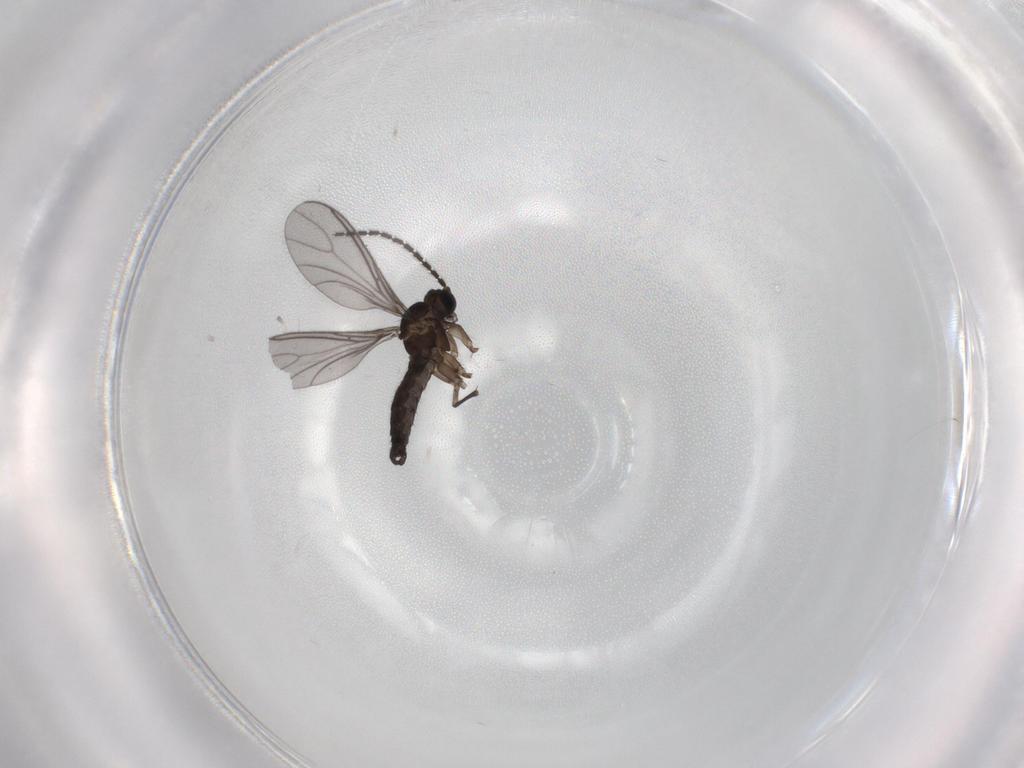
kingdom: Animalia
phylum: Arthropoda
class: Insecta
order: Diptera
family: Sciaridae
